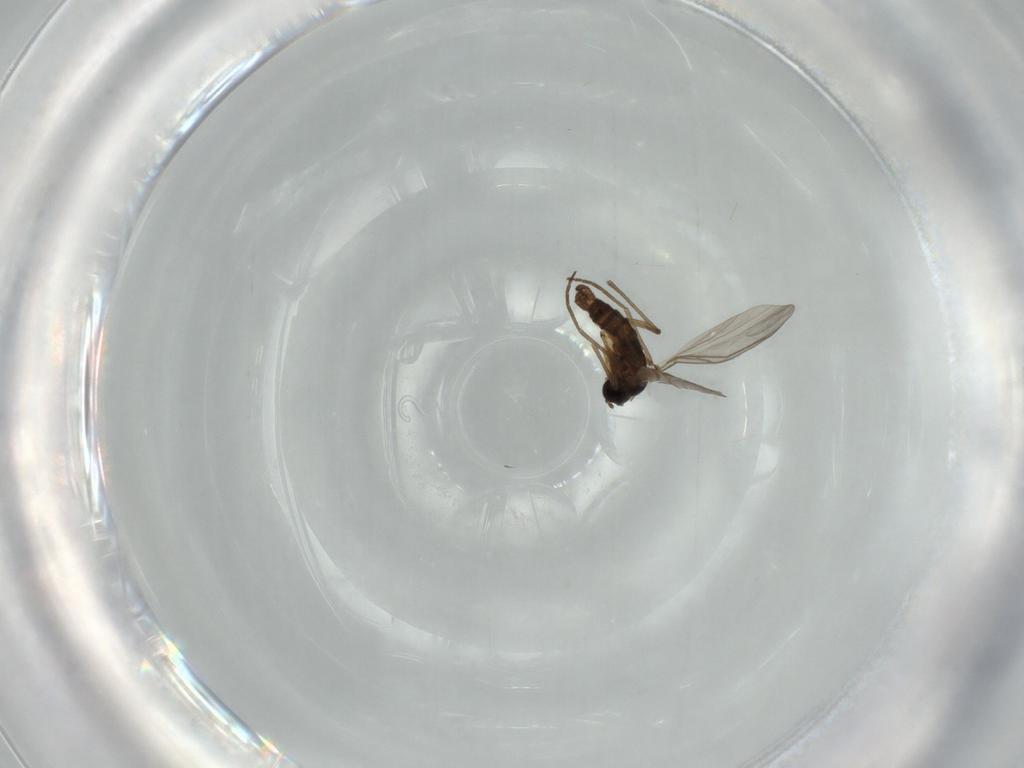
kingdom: Animalia
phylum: Arthropoda
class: Insecta
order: Diptera
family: Sciaridae
